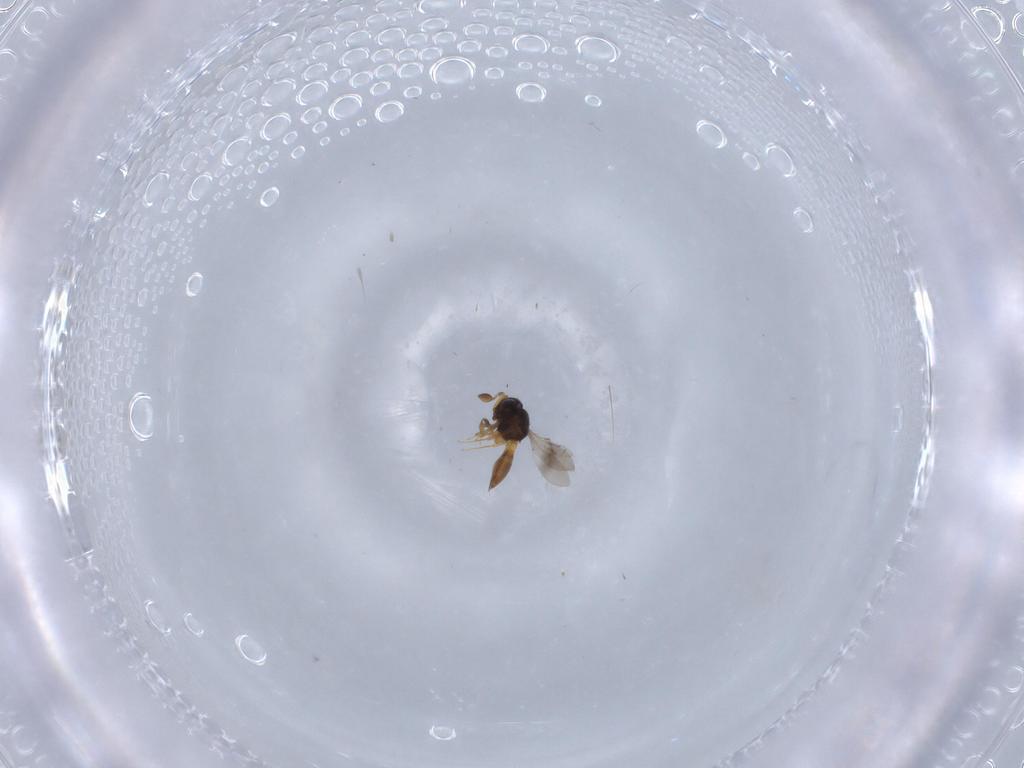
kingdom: Animalia
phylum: Arthropoda
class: Insecta
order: Hymenoptera
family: Scelionidae
